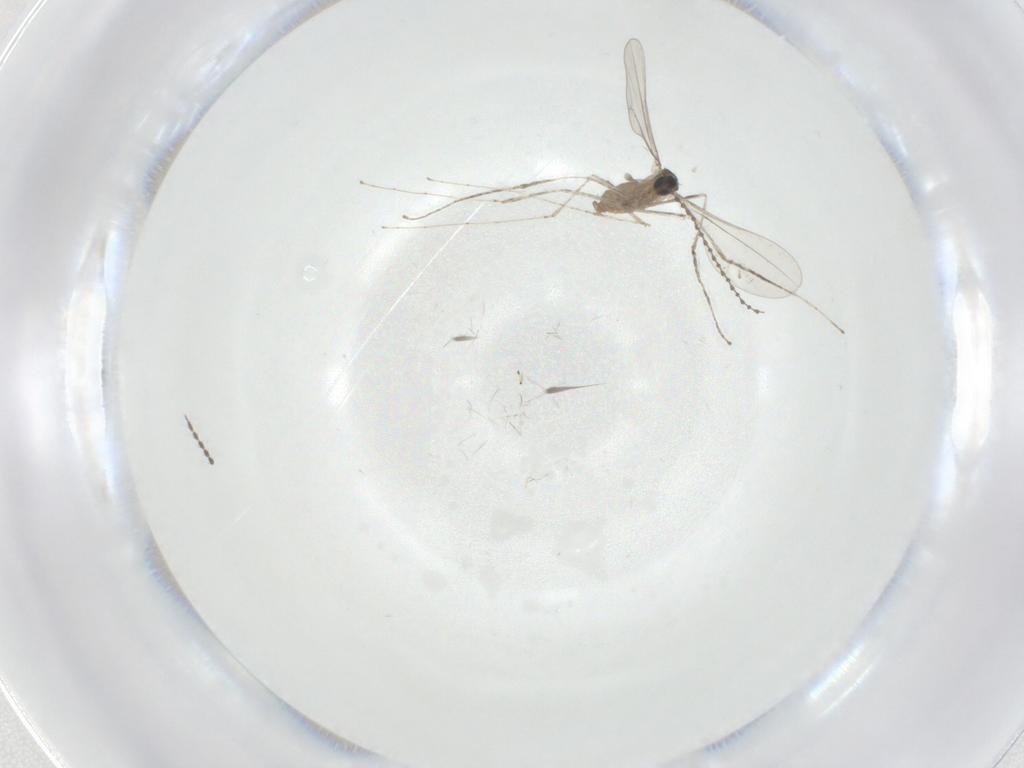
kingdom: Animalia
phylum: Arthropoda
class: Insecta
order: Diptera
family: Cecidomyiidae
